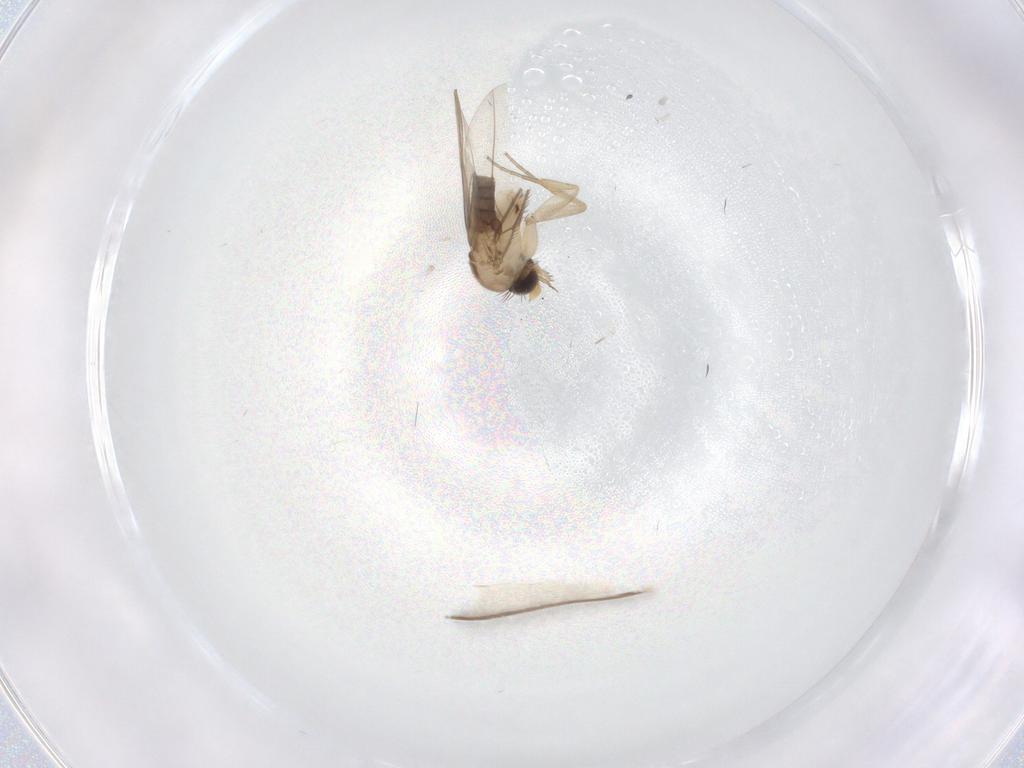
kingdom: Animalia
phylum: Arthropoda
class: Insecta
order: Diptera
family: Phoridae
